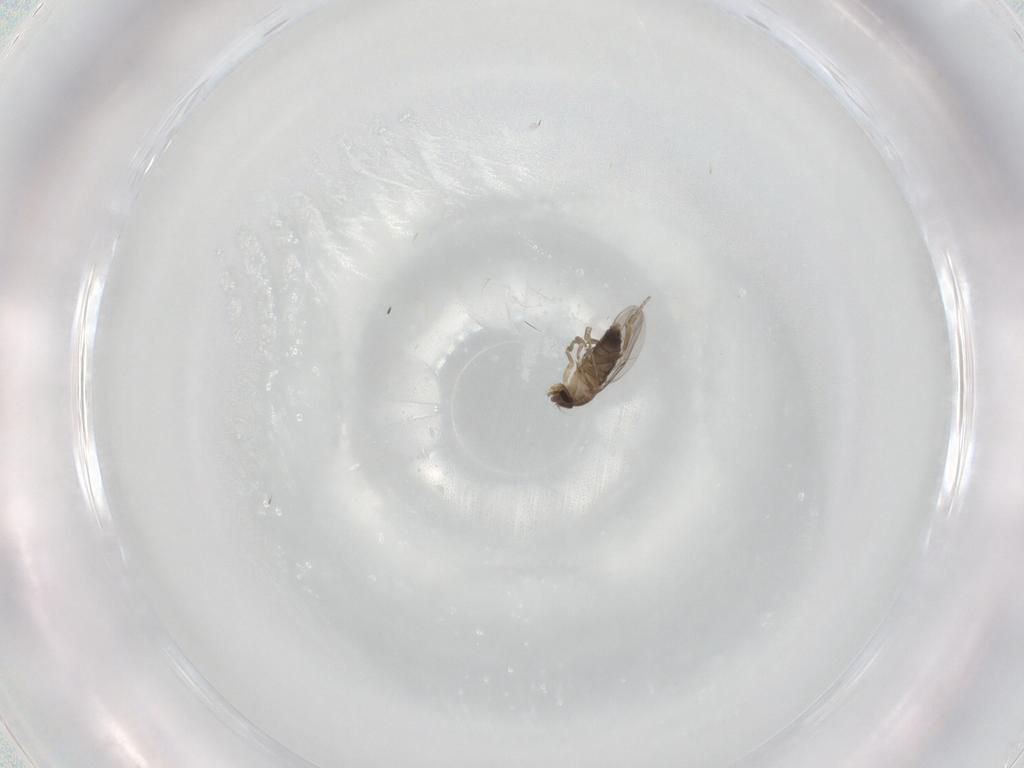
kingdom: Animalia
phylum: Arthropoda
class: Insecta
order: Diptera
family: Phoridae
